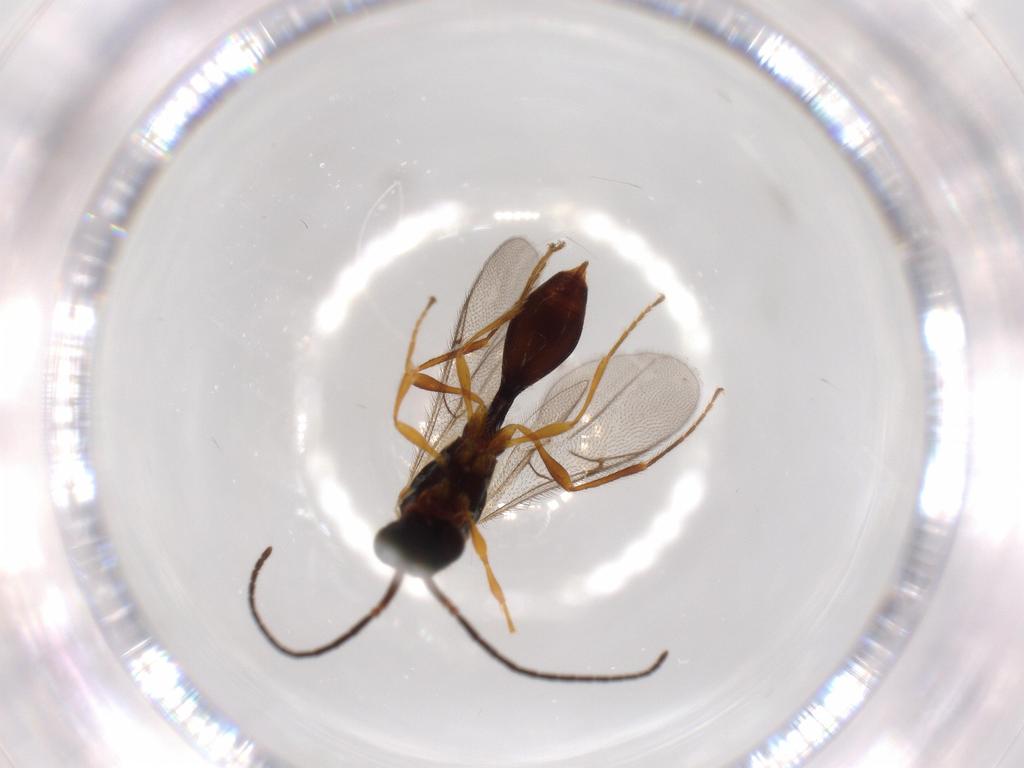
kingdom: Animalia
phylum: Arthropoda
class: Insecta
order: Hymenoptera
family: Diapriidae
